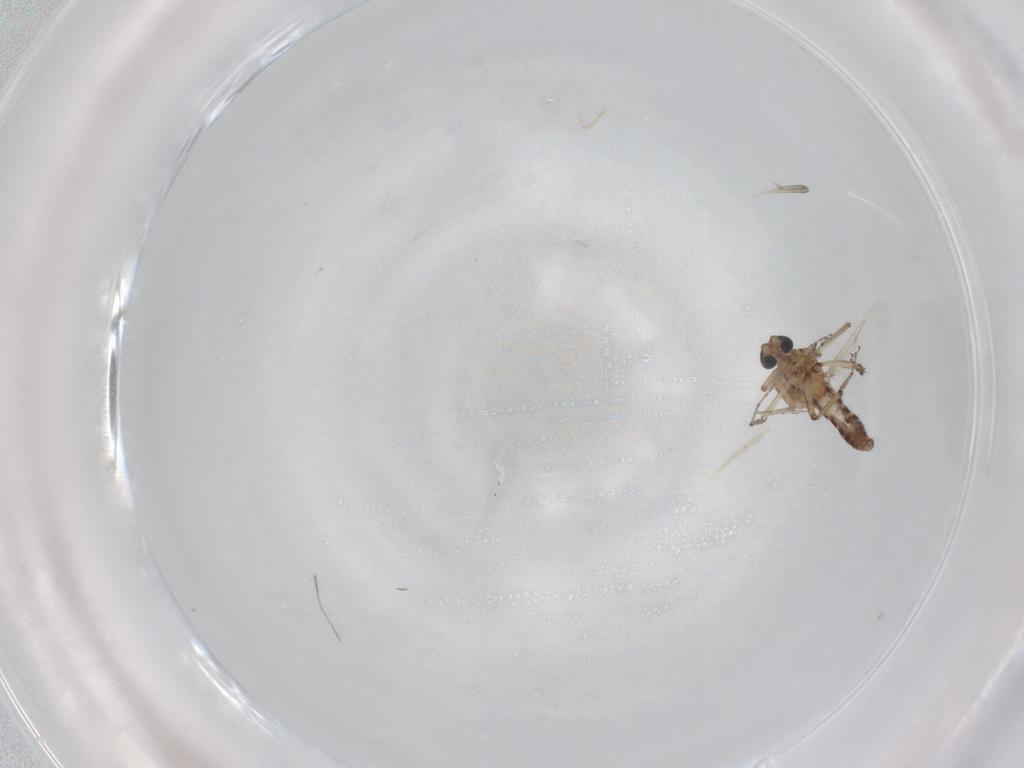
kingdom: Animalia
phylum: Arthropoda
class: Insecta
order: Diptera
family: Ceratopogonidae
